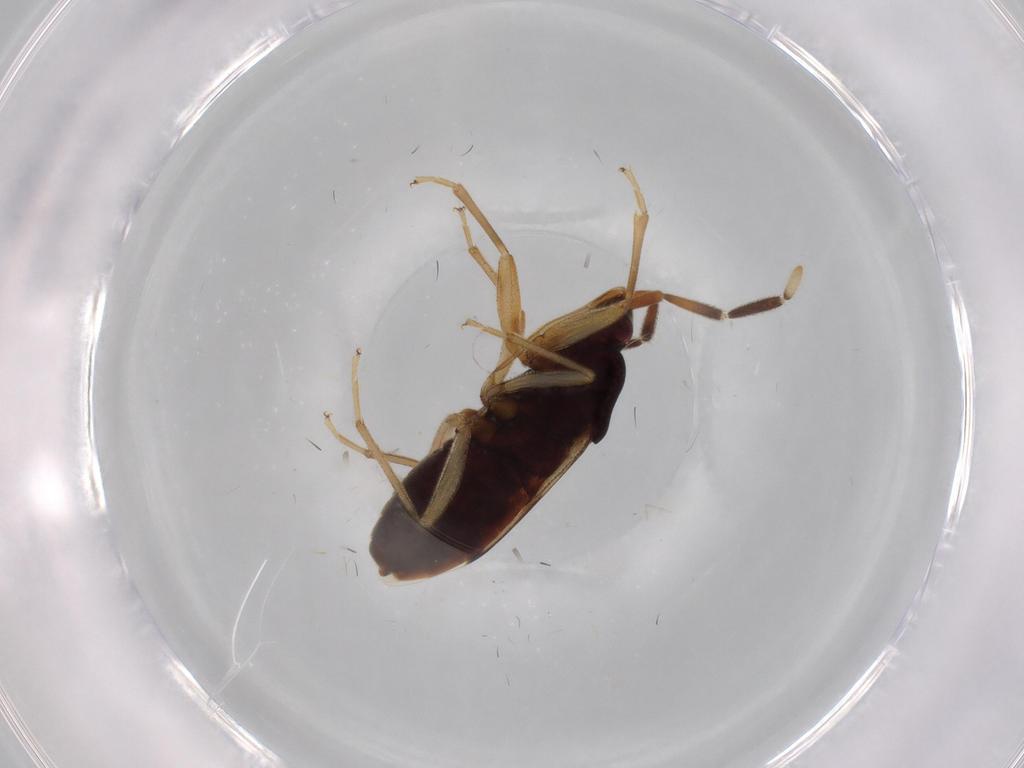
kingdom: Animalia
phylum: Arthropoda
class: Insecta
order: Hemiptera
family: Rhyparochromidae
